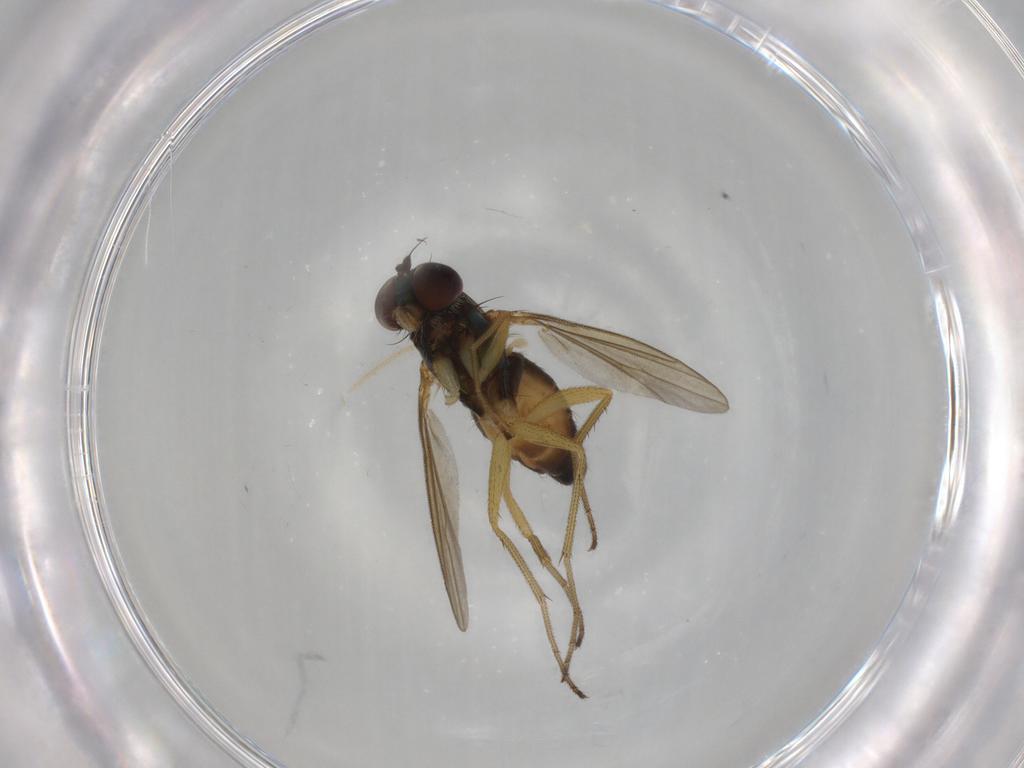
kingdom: Animalia
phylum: Arthropoda
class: Insecta
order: Diptera
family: Dolichopodidae
